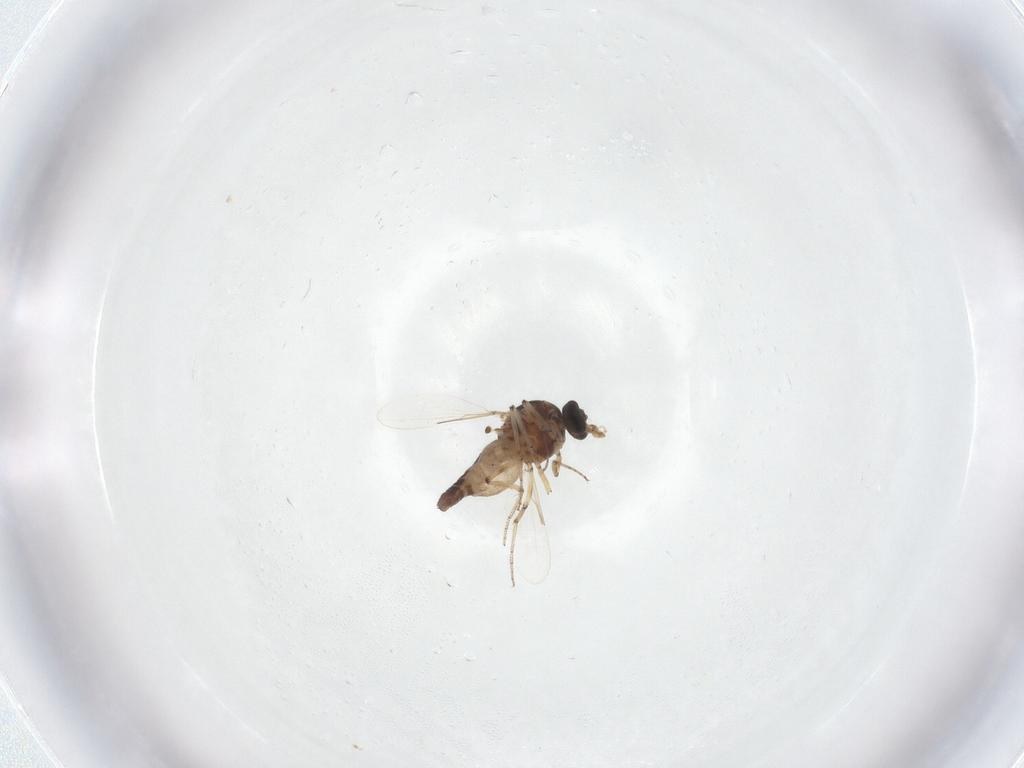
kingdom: Animalia
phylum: Arthropoda
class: Insecta
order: Diptera
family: Ceratopogonidae
